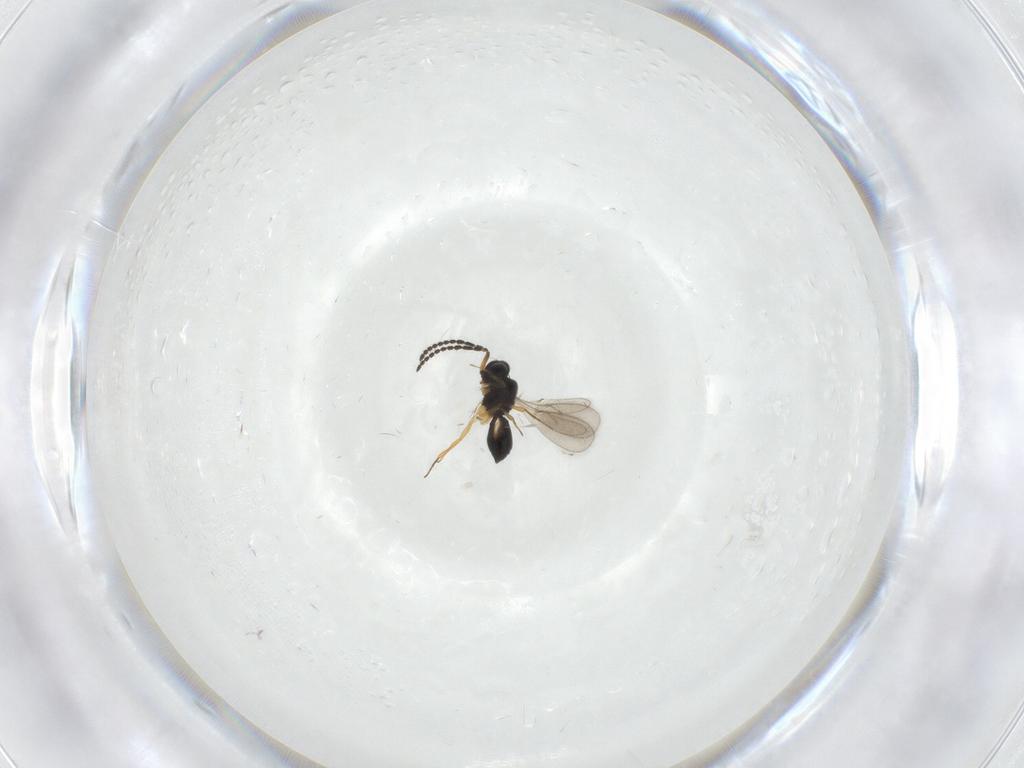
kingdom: Animalia
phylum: Arthropoda
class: Insecta
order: Hymenoptera
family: Scelionidae
